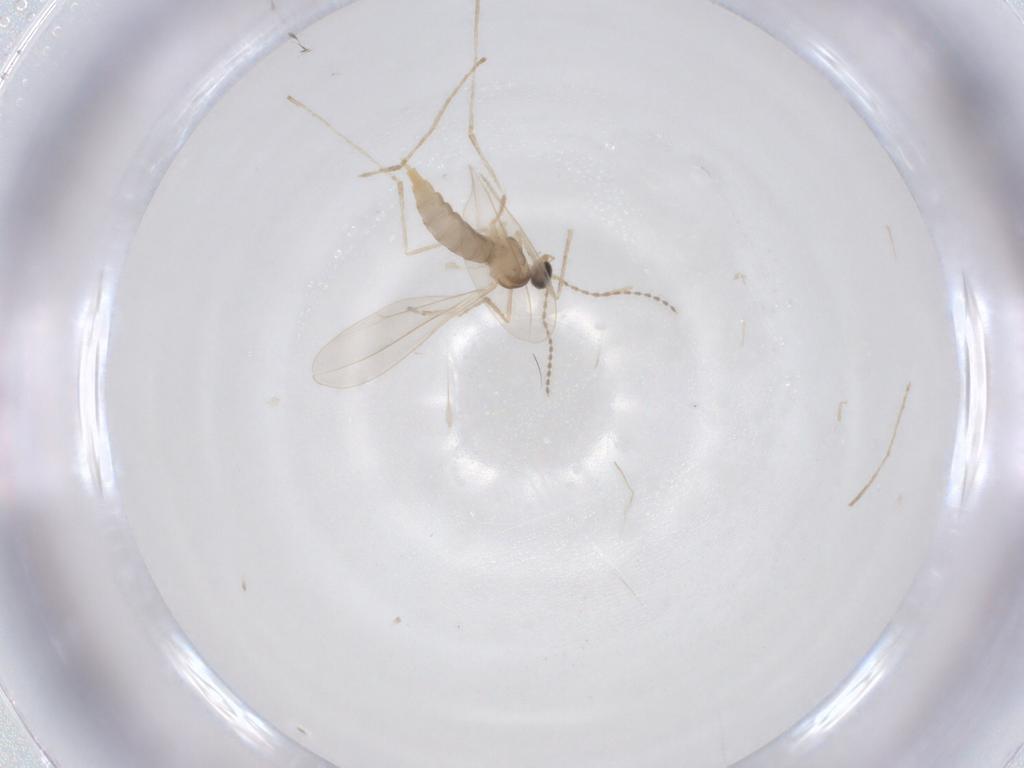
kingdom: Animalia
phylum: Arthropoda
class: Insecta
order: Diptera
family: Cecidomyiidae
